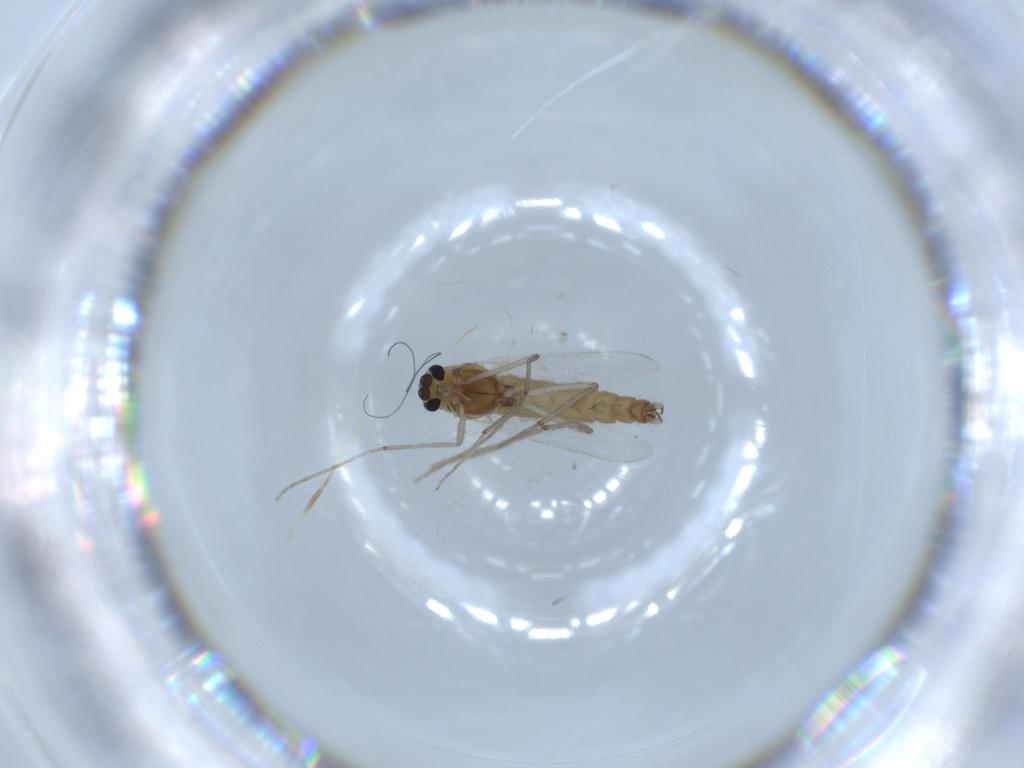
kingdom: Animalia
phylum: Arthropoda
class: Insecta
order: Diptera
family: Chironomidae
